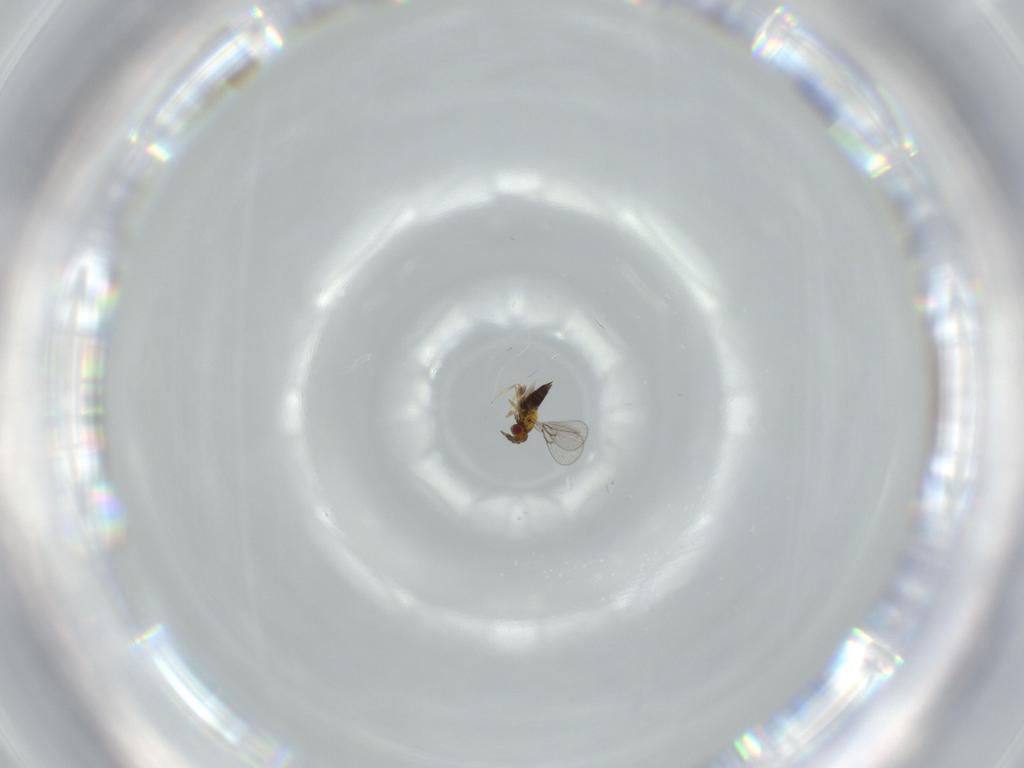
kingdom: Animalia
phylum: Arthropoda
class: Insecta
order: Hymenoptera
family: Trichogrammatidae
